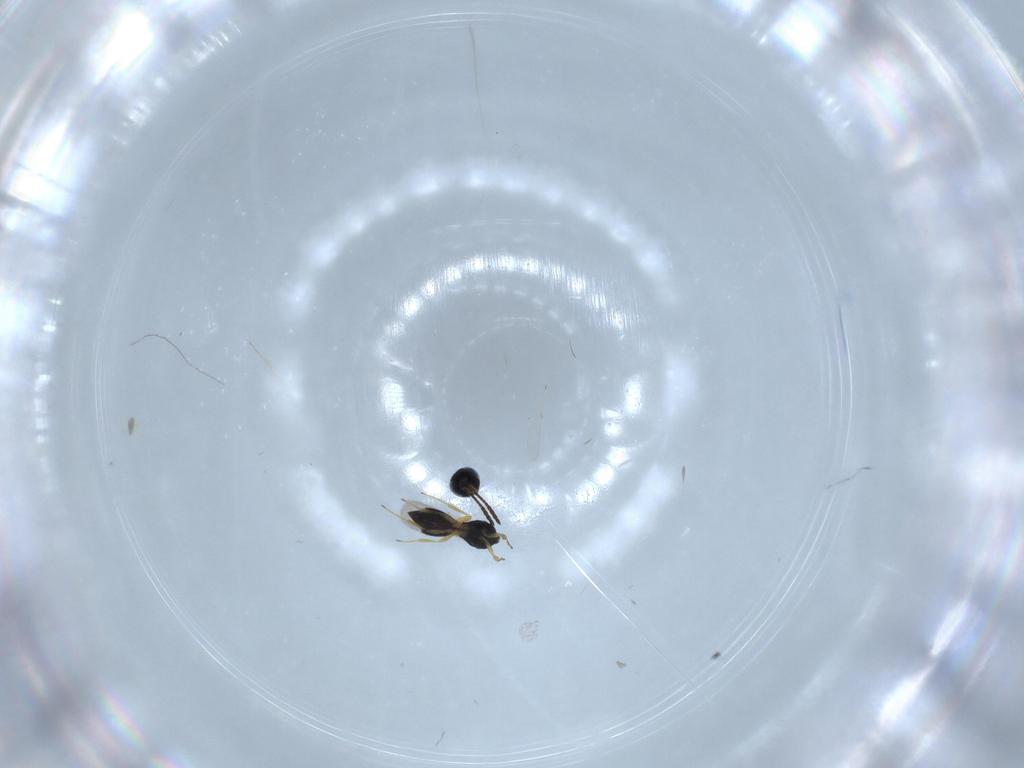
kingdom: Animalia
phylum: Arthropoda
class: Insecta
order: Hymenoptera
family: Scelionidae
